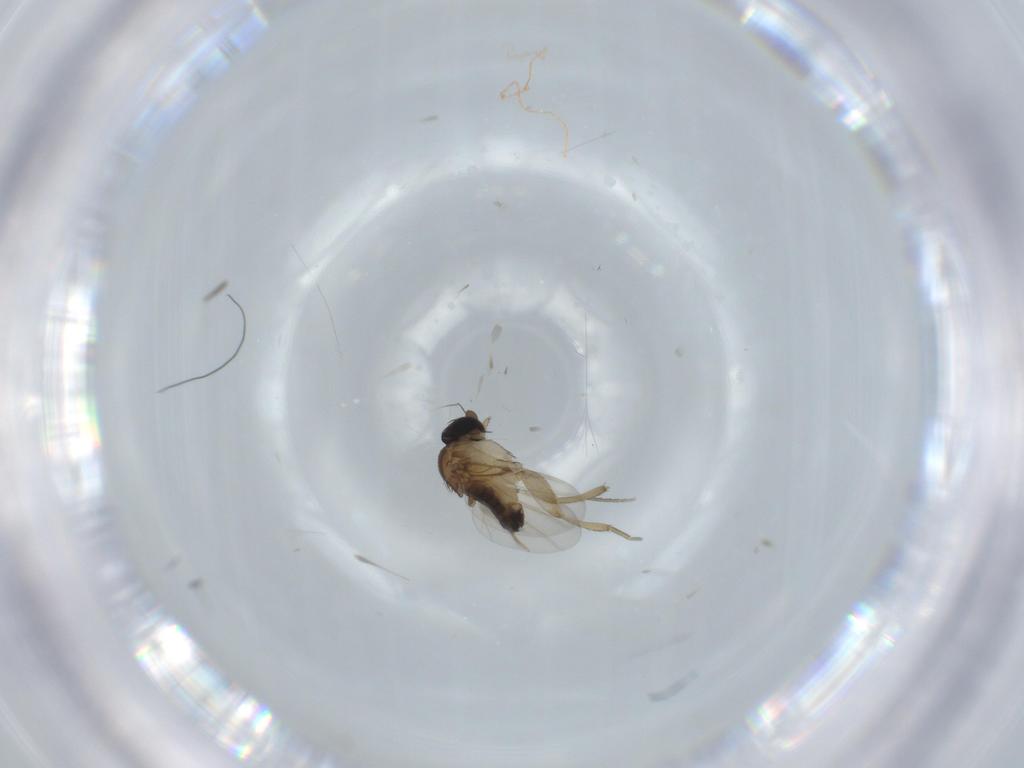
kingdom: Animalia
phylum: Arthropoda
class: Insecta
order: Diptera
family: Phoridae
